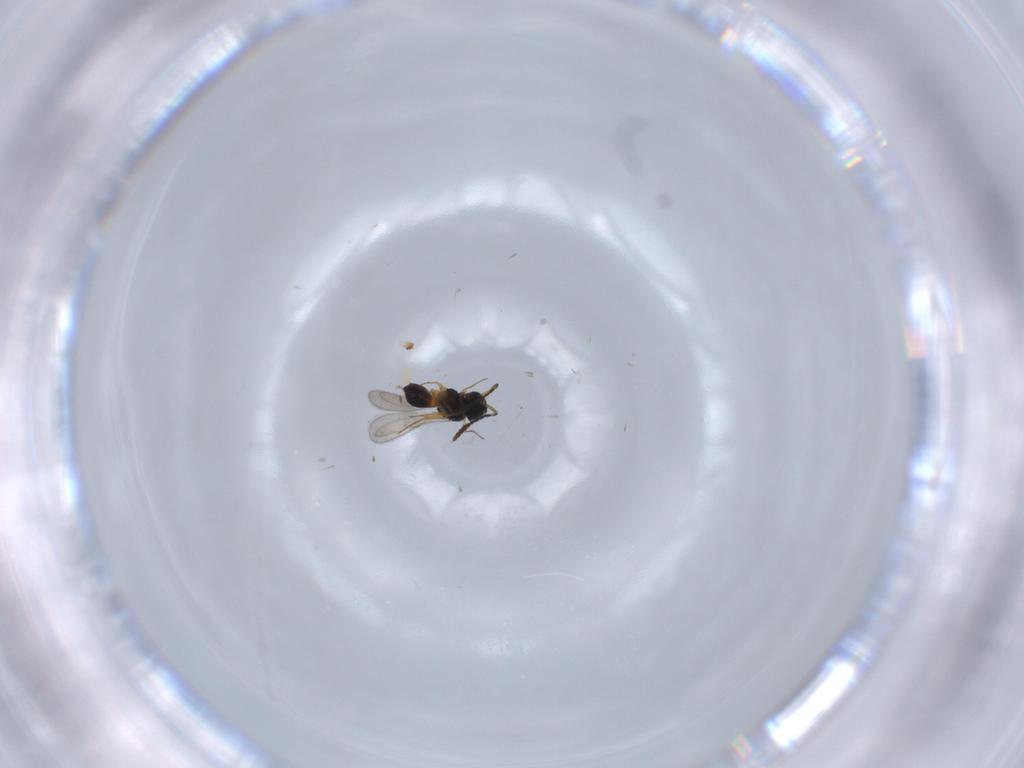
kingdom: Animalia
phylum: Arthropoda
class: Insecta
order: Hymenoptera
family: Scelionidae
